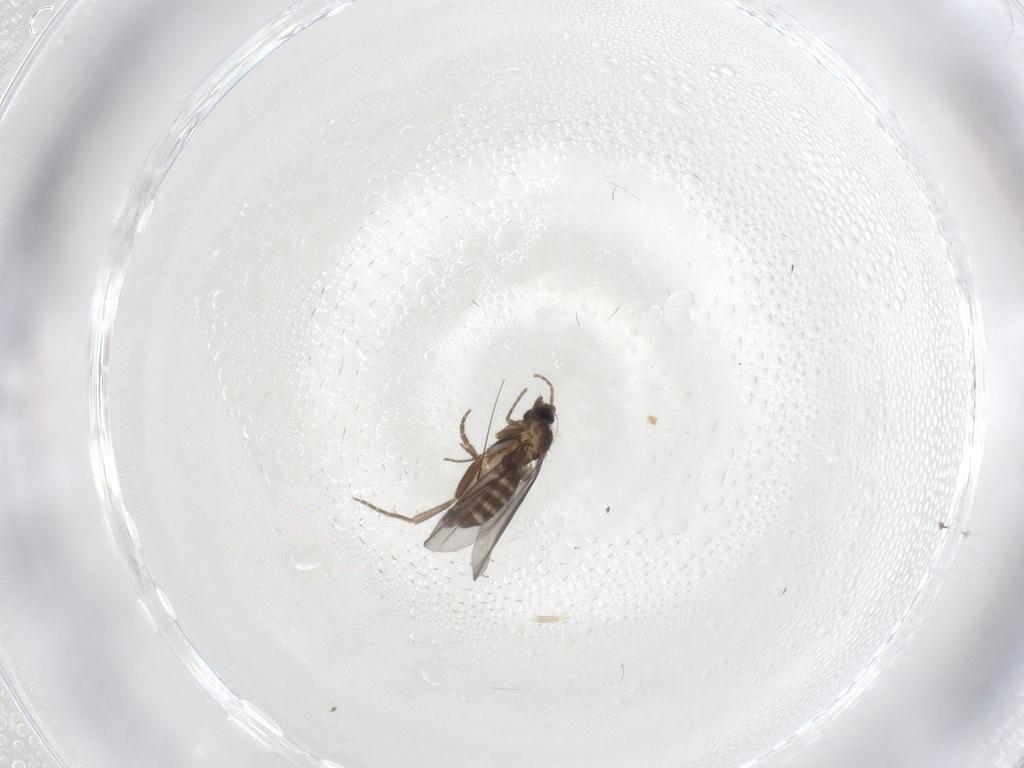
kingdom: Animalia
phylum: Arthropoda
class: Insecta
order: Diptera
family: Phoridae
